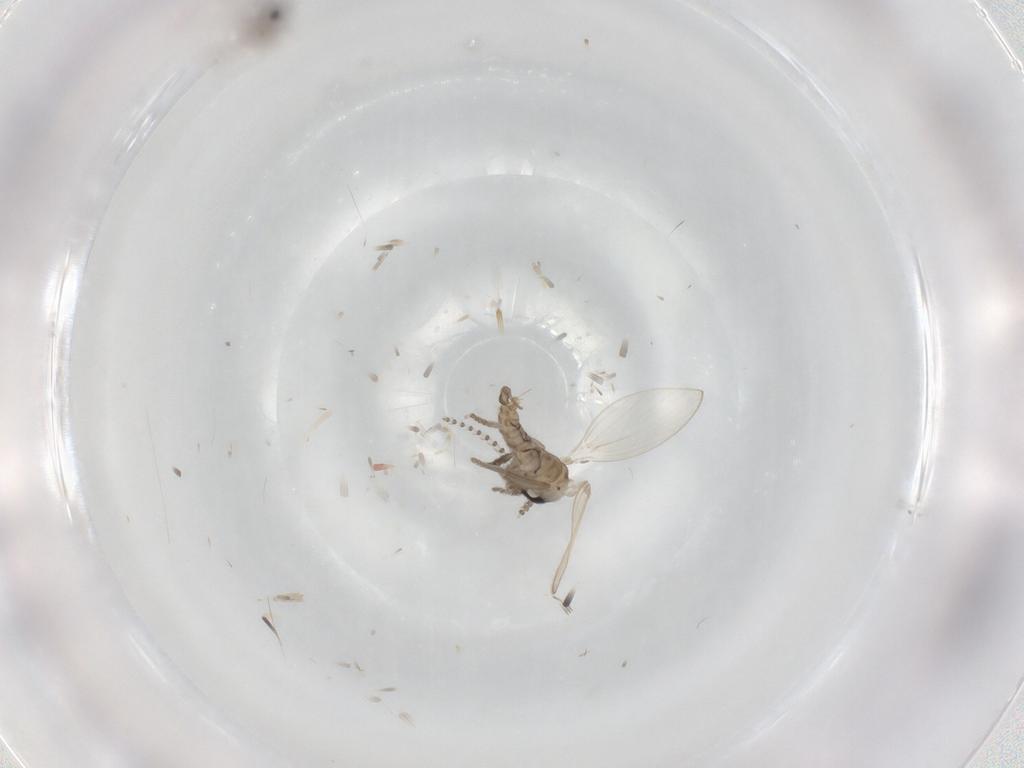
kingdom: Animalia
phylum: Arthropoda
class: Insecta
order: Diptera
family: Psychodidae
